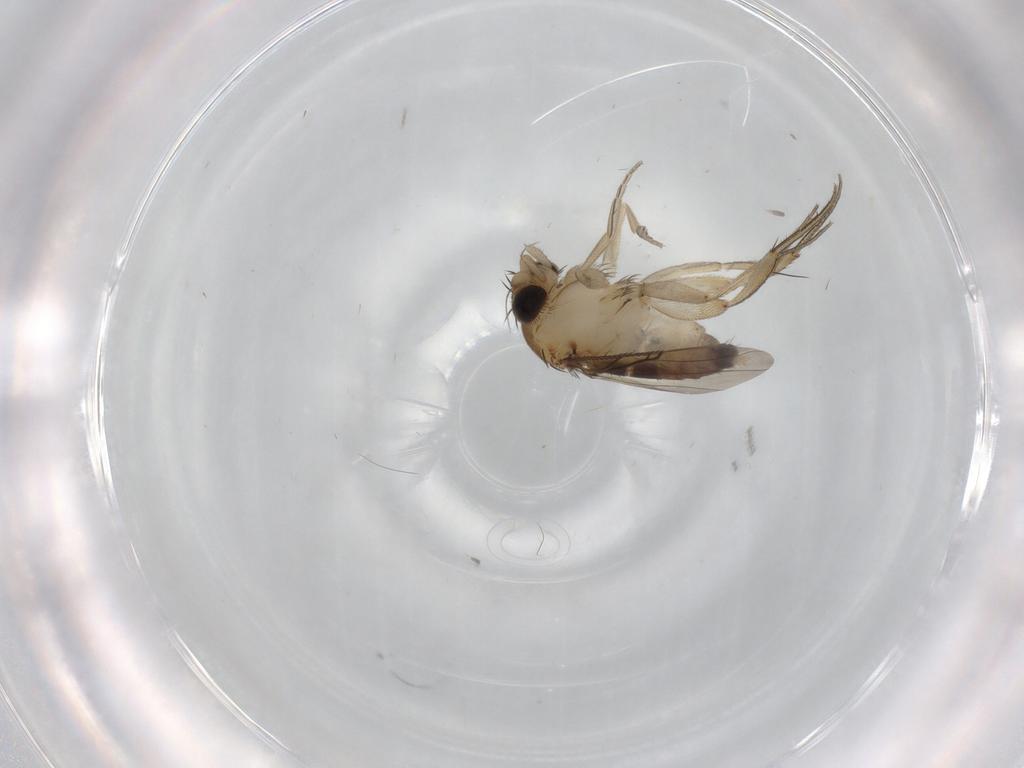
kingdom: Animalia
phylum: Arthropoda
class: Insecta
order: Diptera
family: Phoridae
